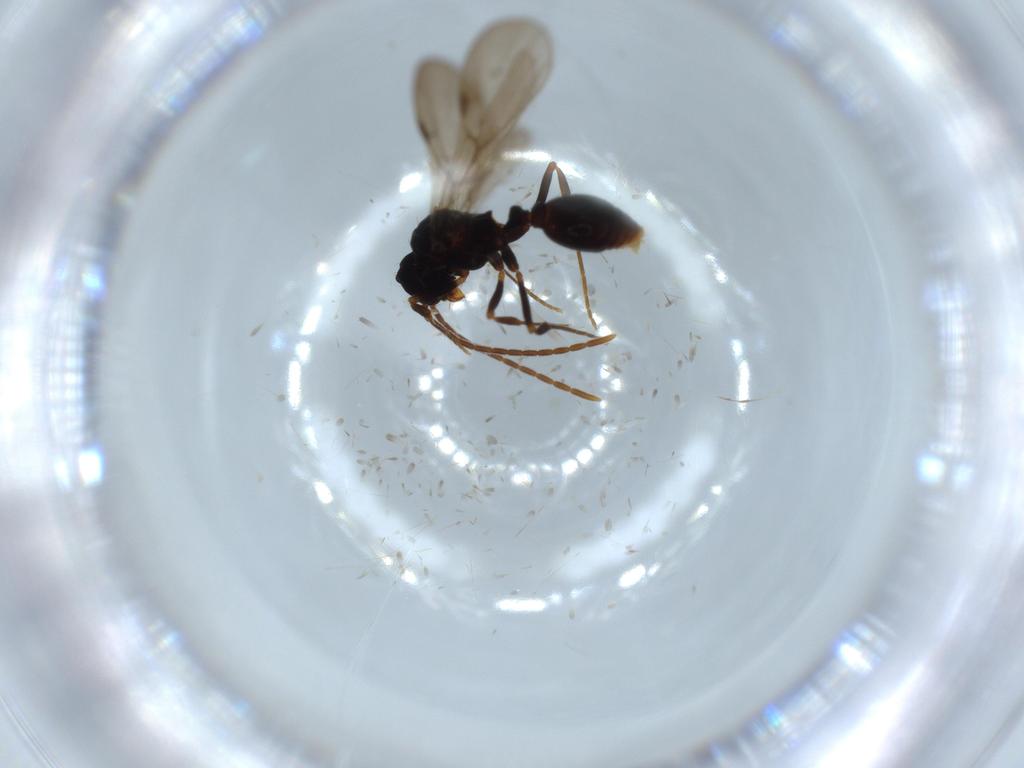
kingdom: Animalia
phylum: Arthropoda
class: Insecta
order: Hymenoptera
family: Formicidae
